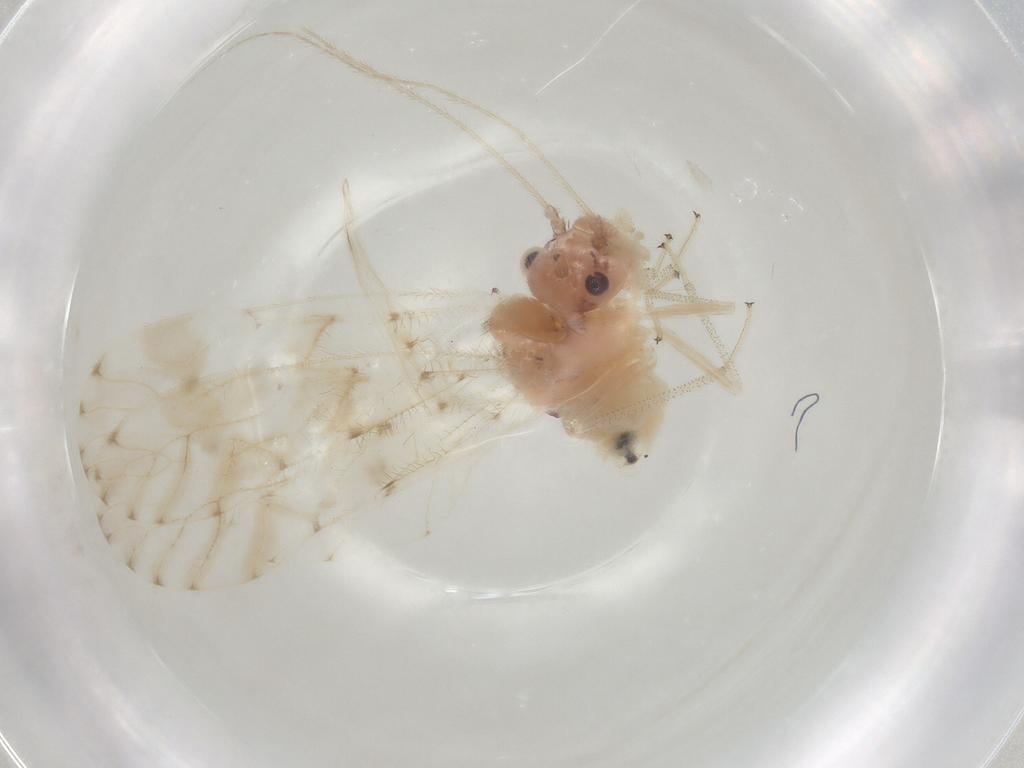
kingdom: Animalia
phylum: Arthropoda
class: Insecta
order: Psocodea
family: Amphipsocidae
